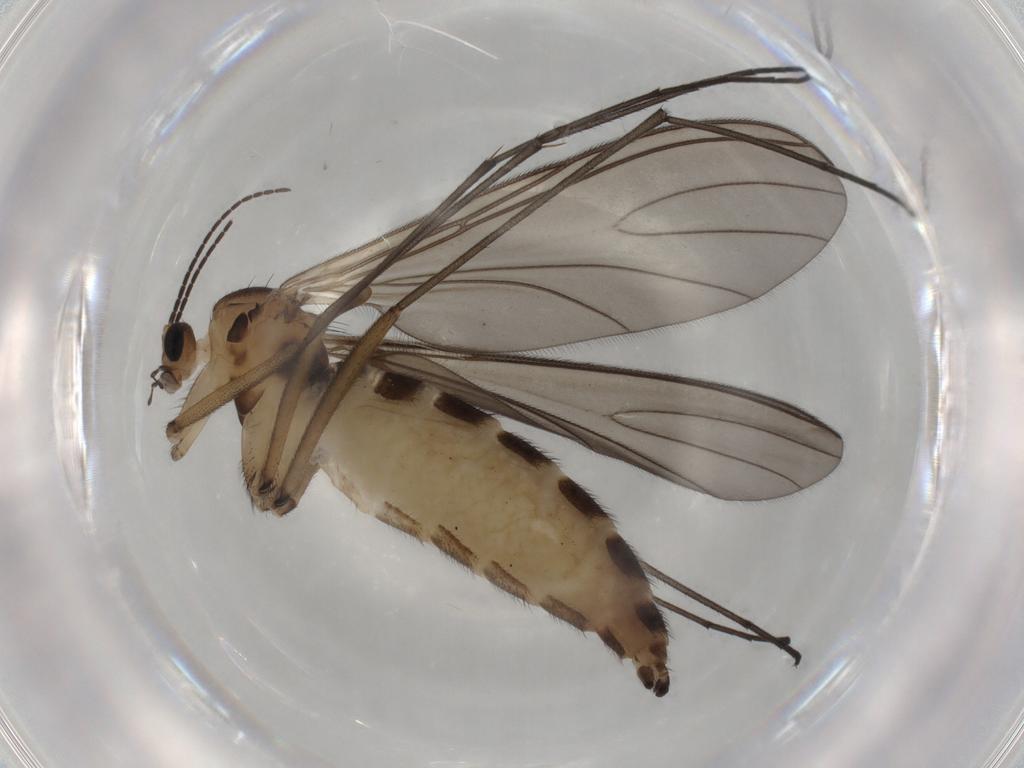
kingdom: Animalia
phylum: Arthropoda
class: Insecta
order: Diptera
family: Sciaridae
